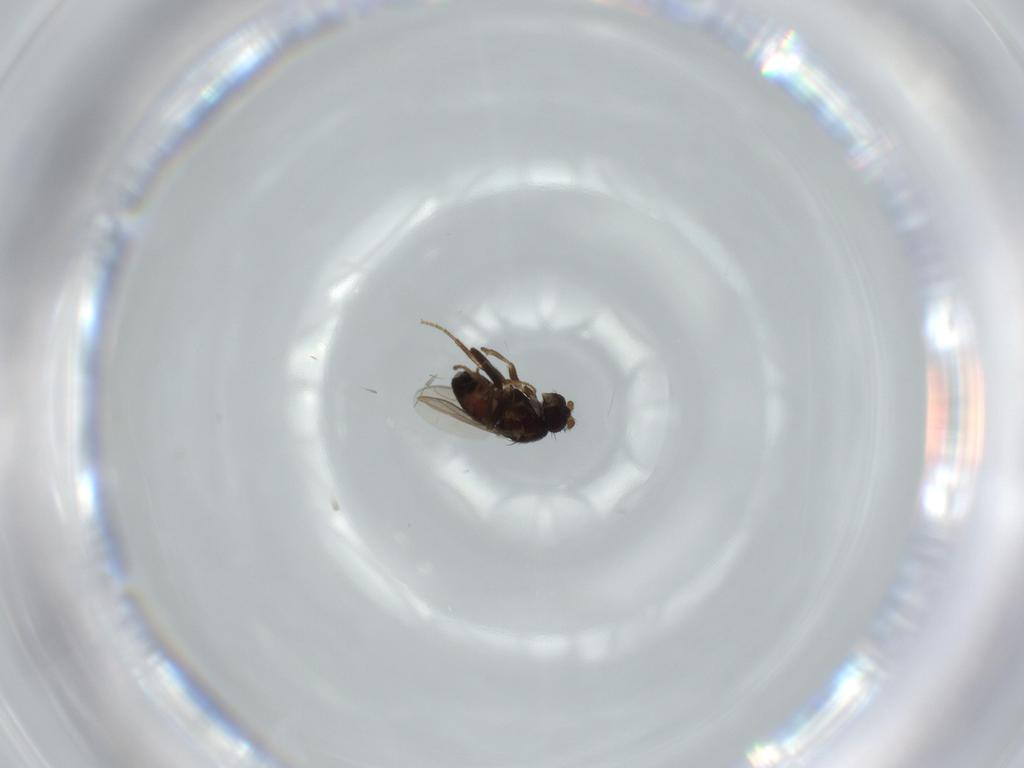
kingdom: Animalia
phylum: Arthropoda
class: Insecta
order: Diptera
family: Sphaeroceridae
